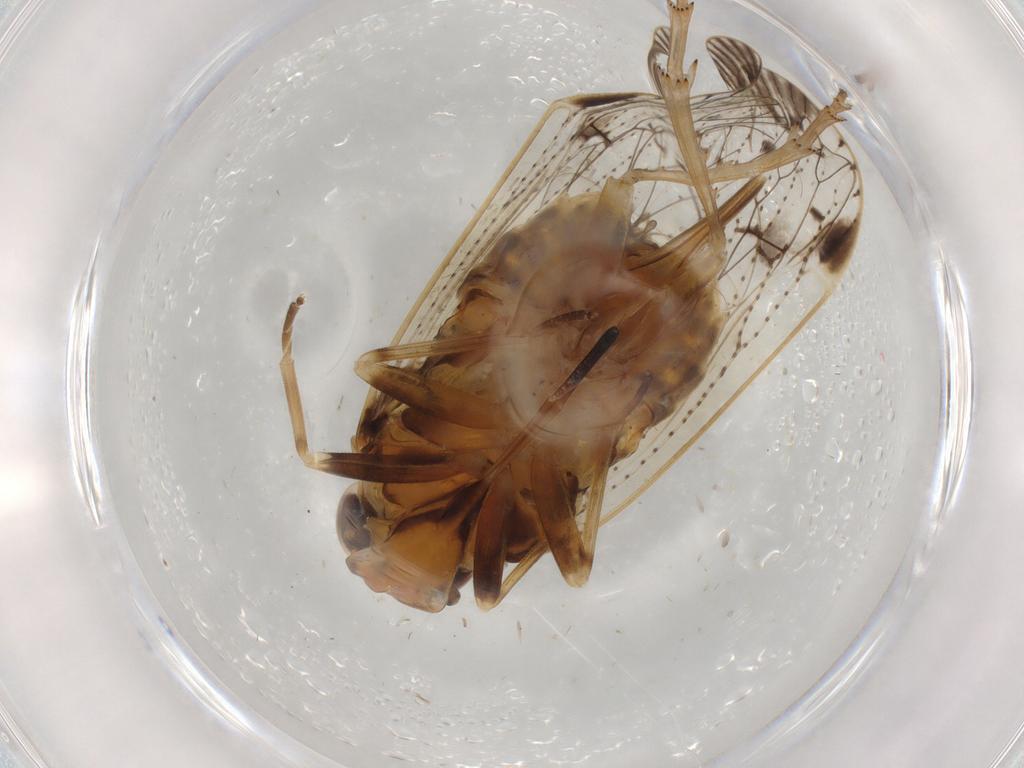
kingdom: Animalia
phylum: Arthropoda
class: Insecta
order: Hemiptera
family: Cixiidae
